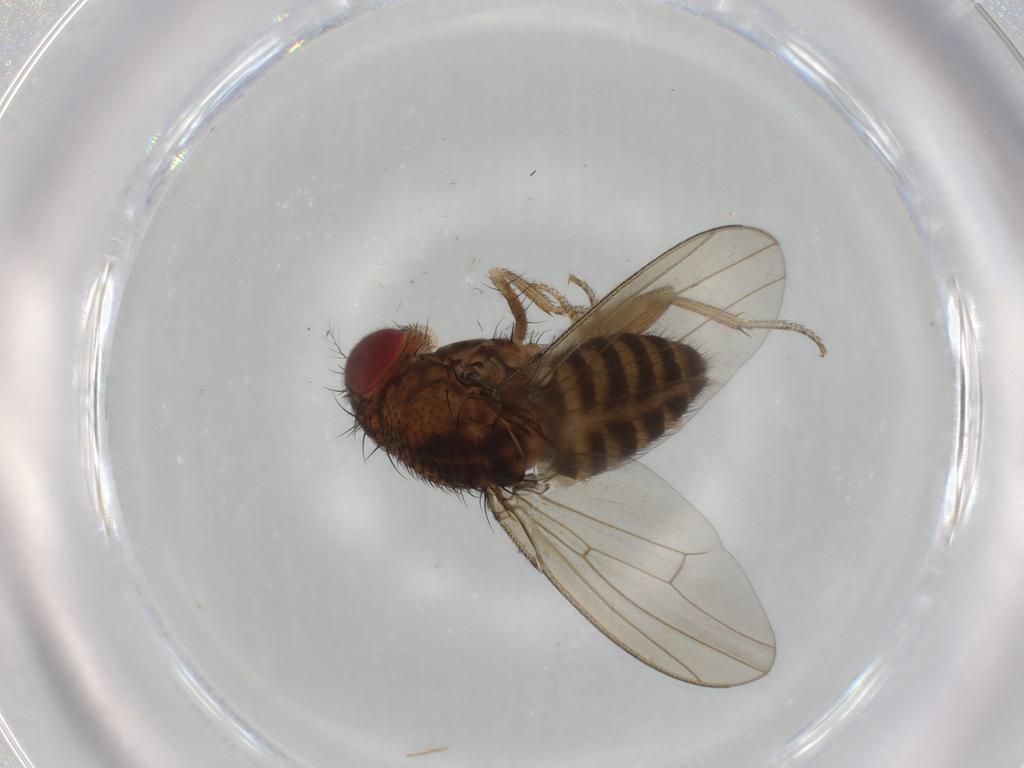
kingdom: Animalia
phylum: Arthropoda
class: Insecta
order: Diptera
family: Drosophilidae
